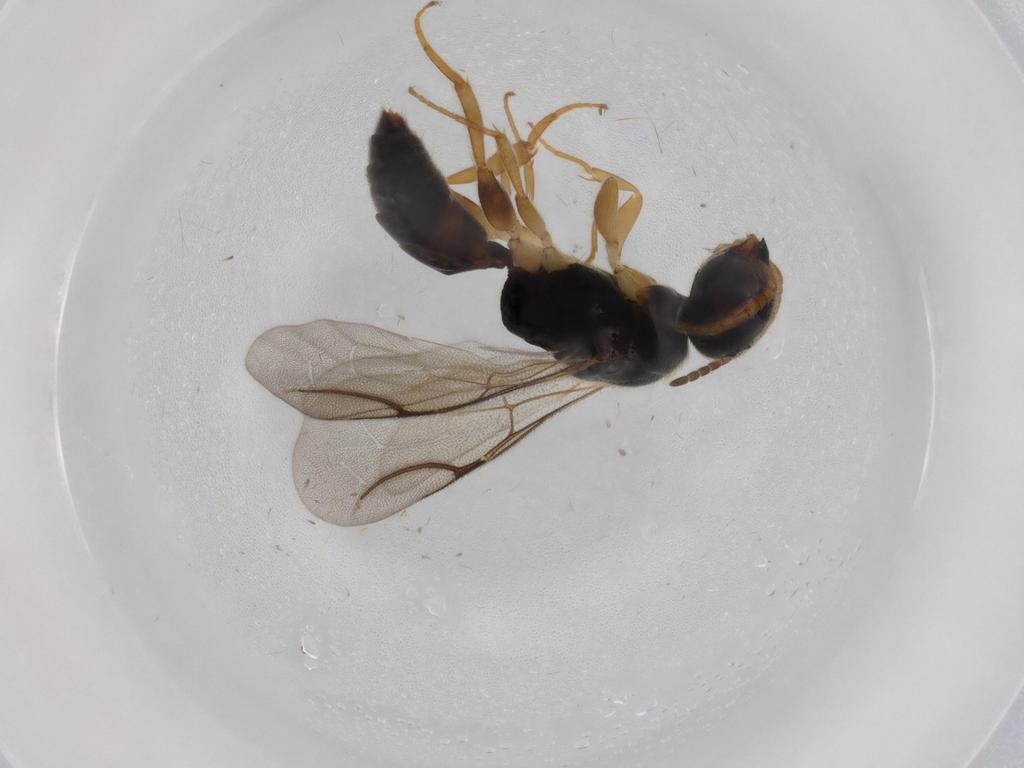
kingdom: Animalia
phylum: Arthropoda
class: Insecta
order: Hymenoptera
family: Bethylidae
